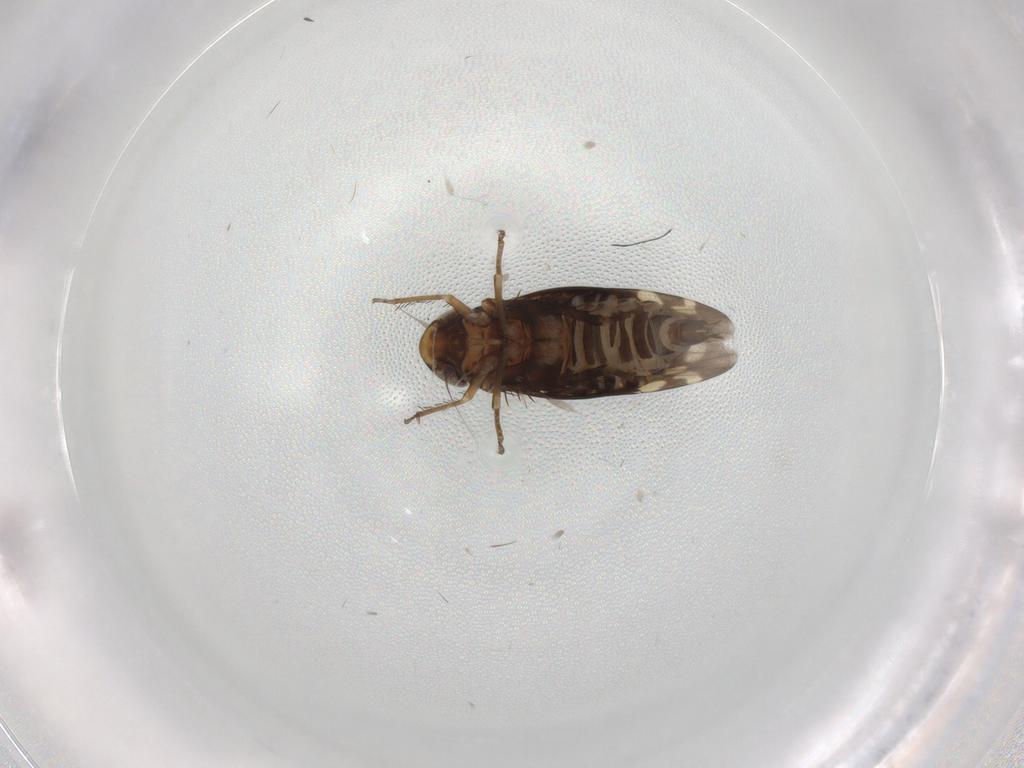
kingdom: Animalia
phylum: Arthropoda
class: Insecta
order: Hemiptera
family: Cicadellidae
